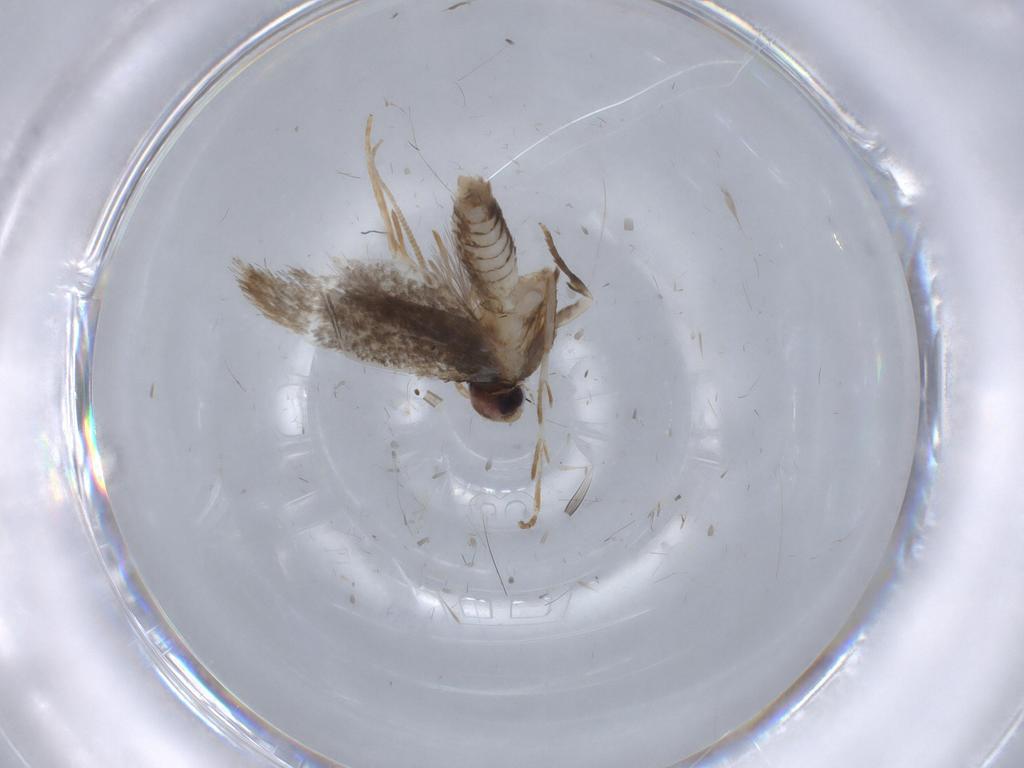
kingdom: Animalia
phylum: Arthropoda
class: Insecta
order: Lepidoptera
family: Coleophoridae
